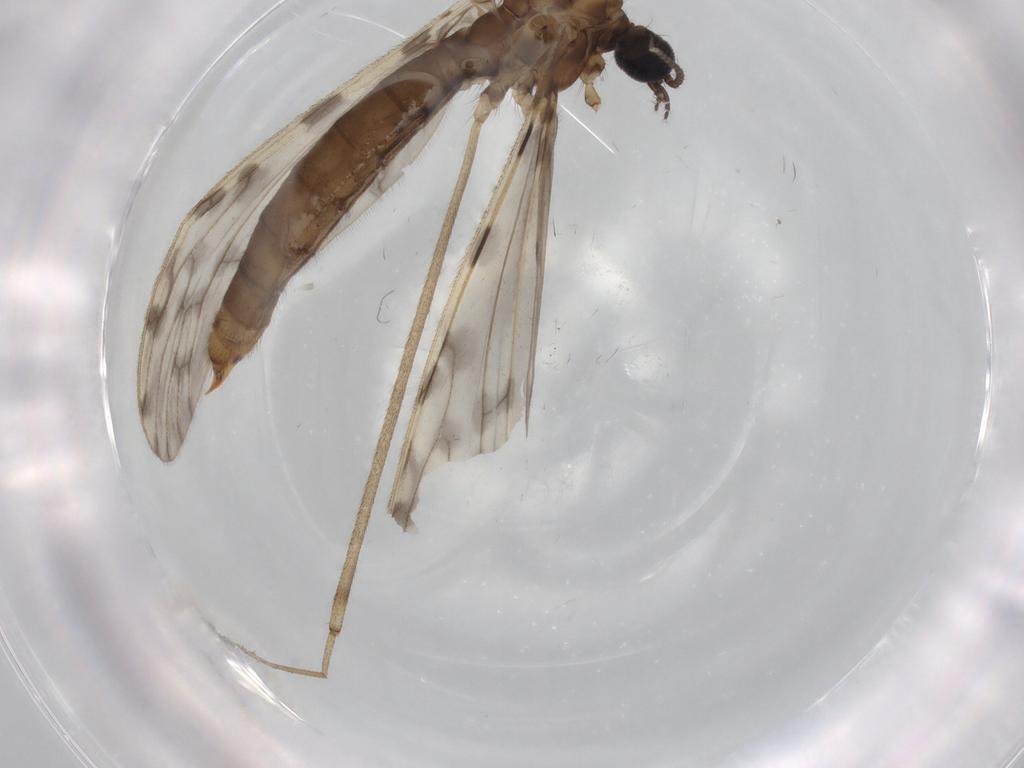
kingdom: Animalia
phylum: Arthropoda
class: Insecta
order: Diptera
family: Limoniidae
